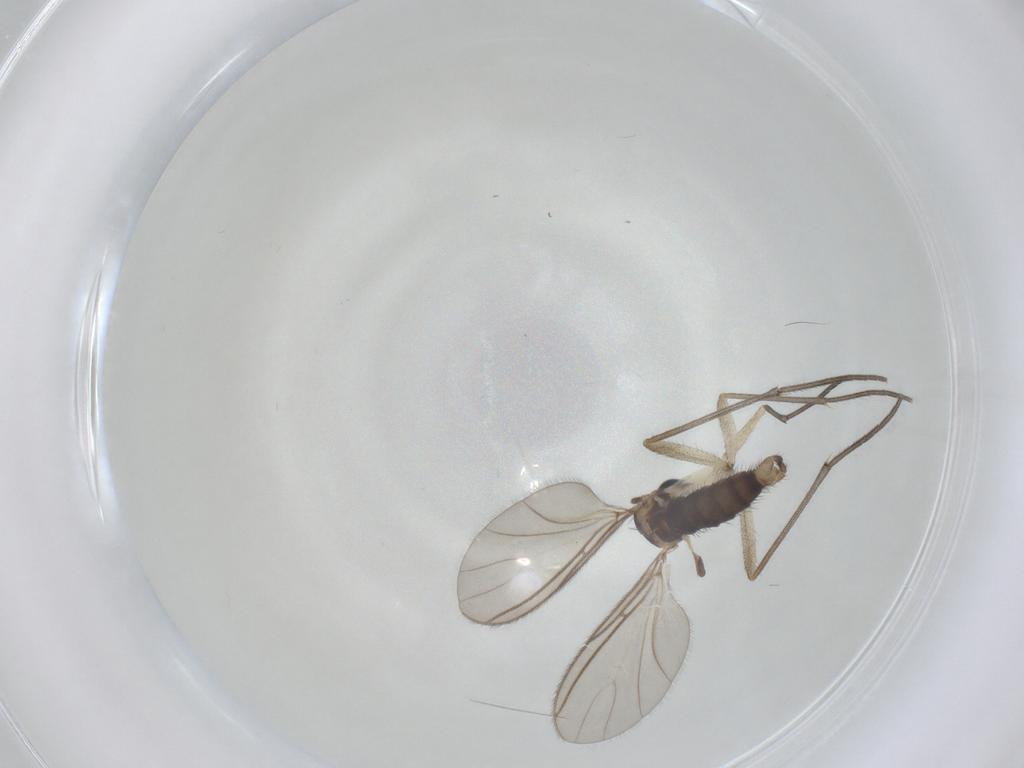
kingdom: Animalia
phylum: Arthropoda
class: Insecta
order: Diptera
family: Sciaridae
